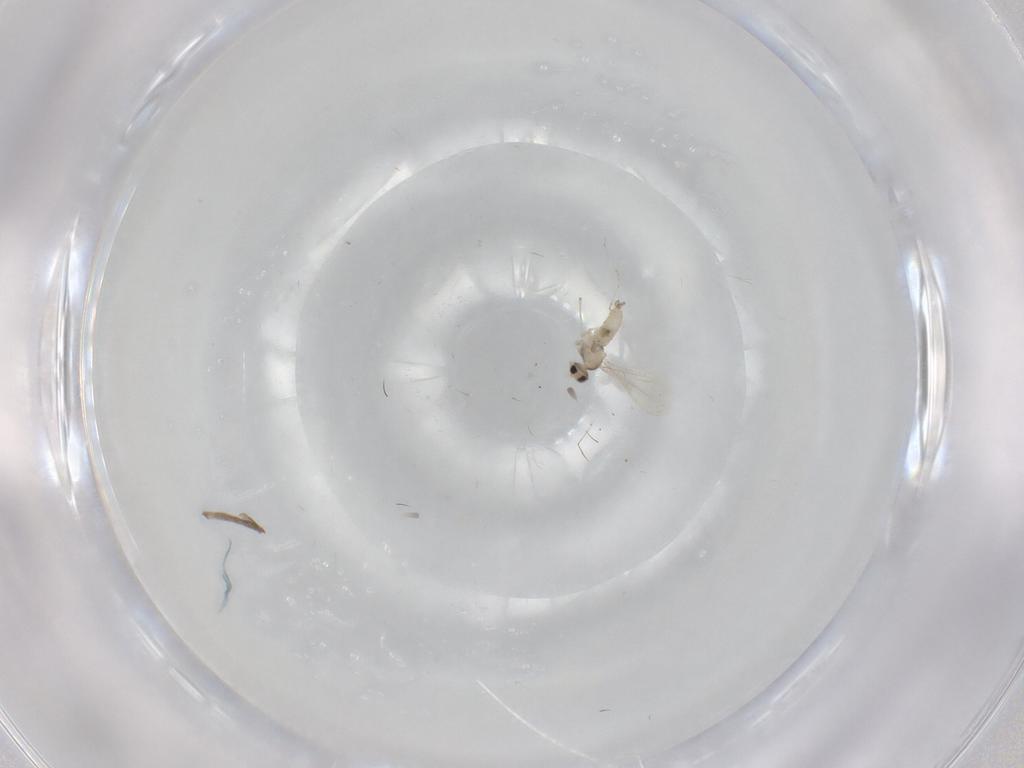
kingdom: Animalia
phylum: Arthropoda
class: Insecta
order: Diptera
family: Cecidomyiidae
